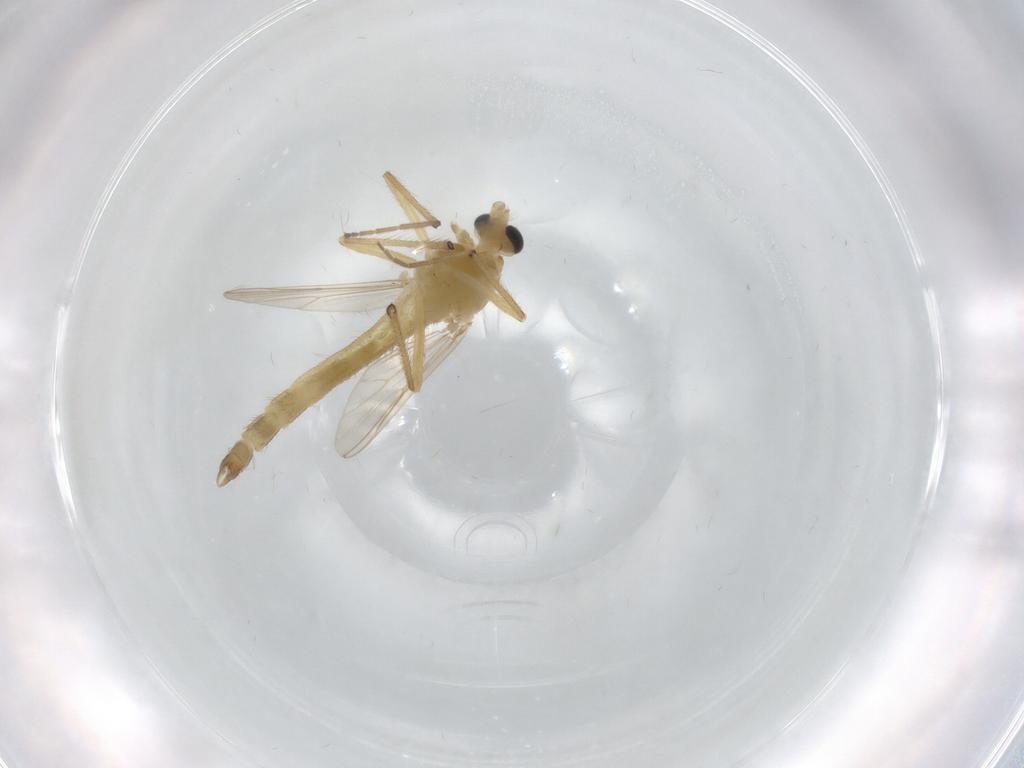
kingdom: Animalia
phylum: Arthropoda
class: Insecta
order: Diptera
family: Chironomidae
